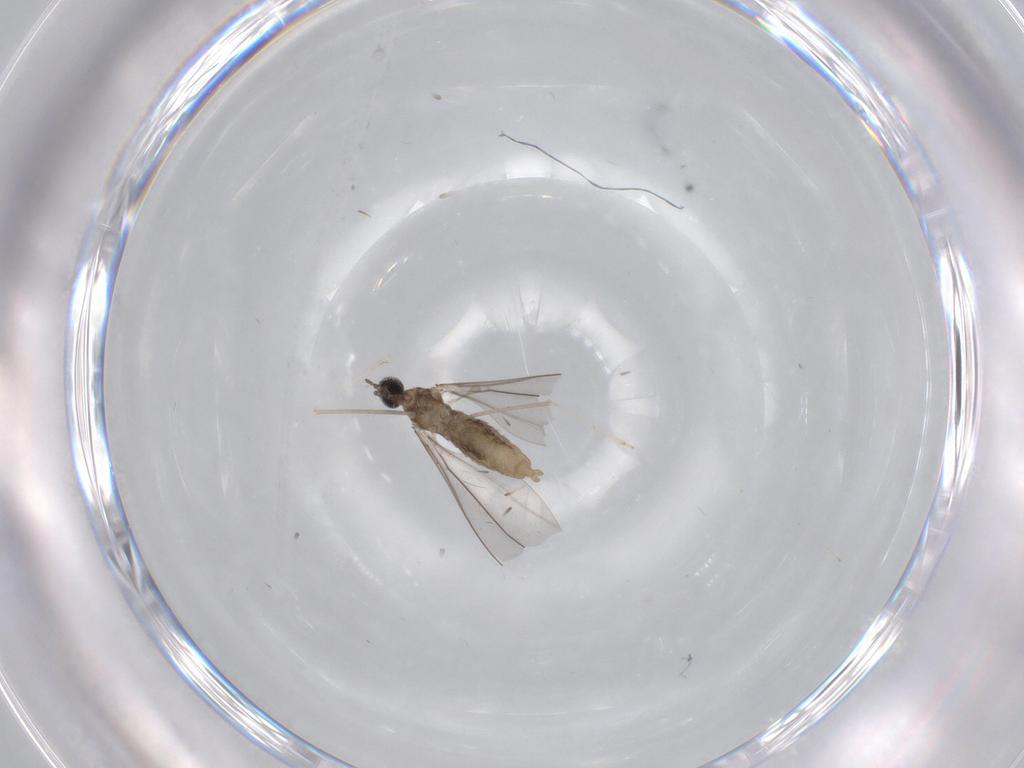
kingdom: Animalia
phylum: Arthropoda
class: Insecta
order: Diptera
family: Cecidomyiidae
